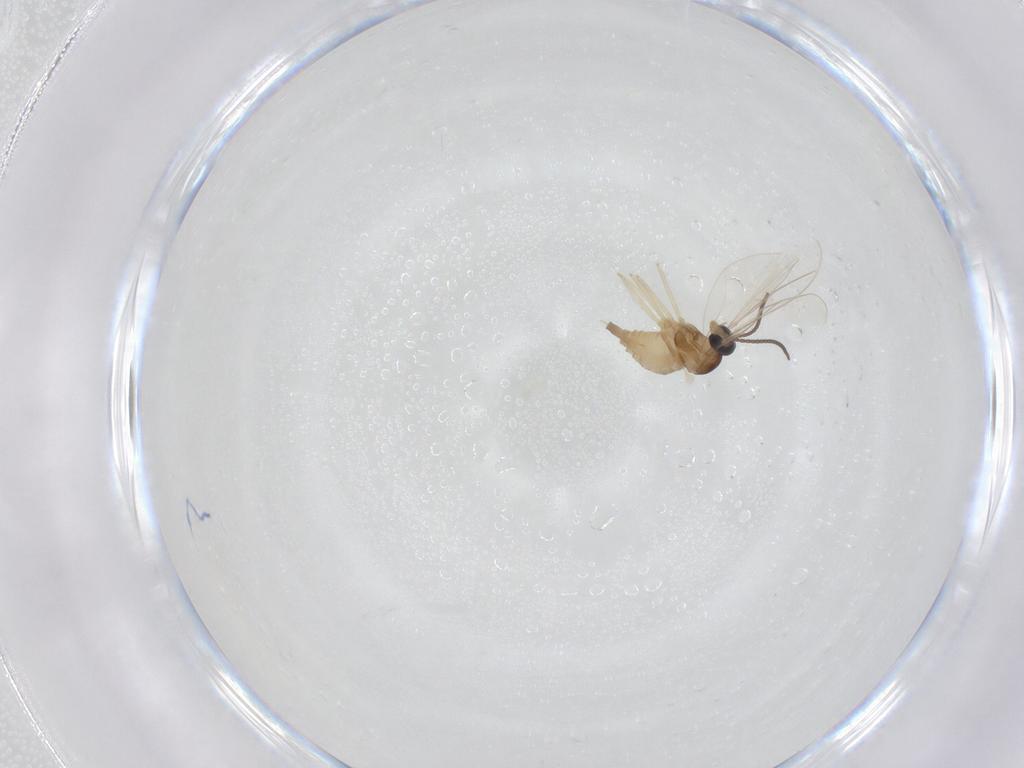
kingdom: Animalia
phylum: Arthropoda
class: Insecta
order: Diptera
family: Cecidomyiidae
